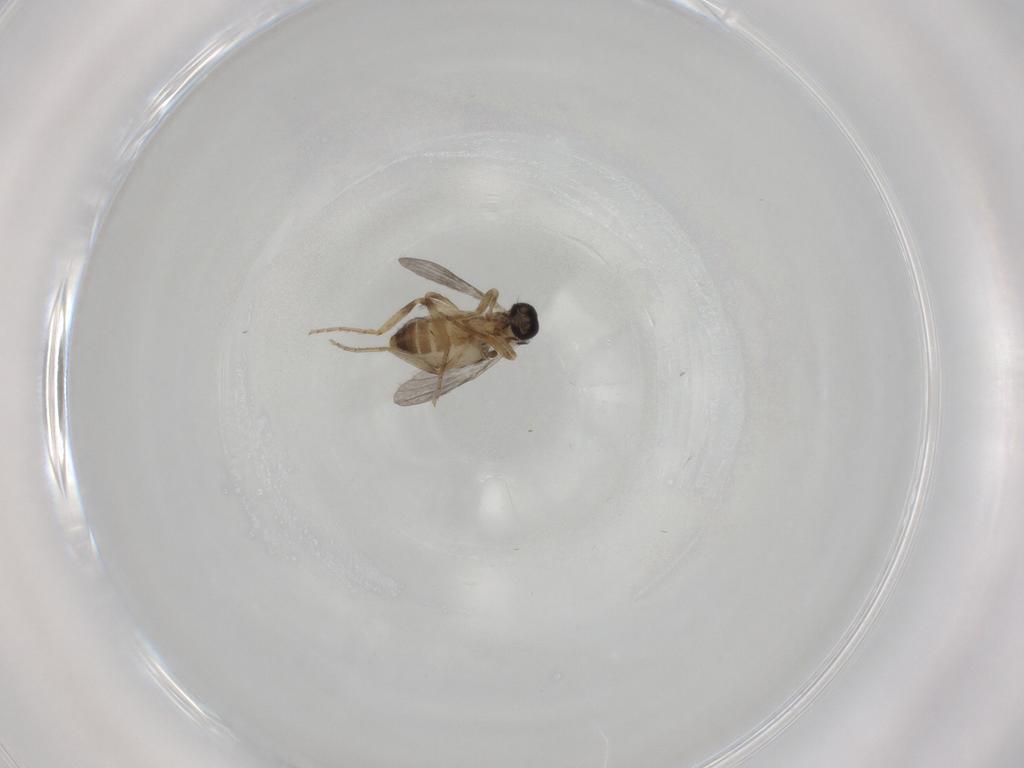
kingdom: Animalia
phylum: Arthropoda
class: Insecta
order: Diptera
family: Ceratopogonidae
